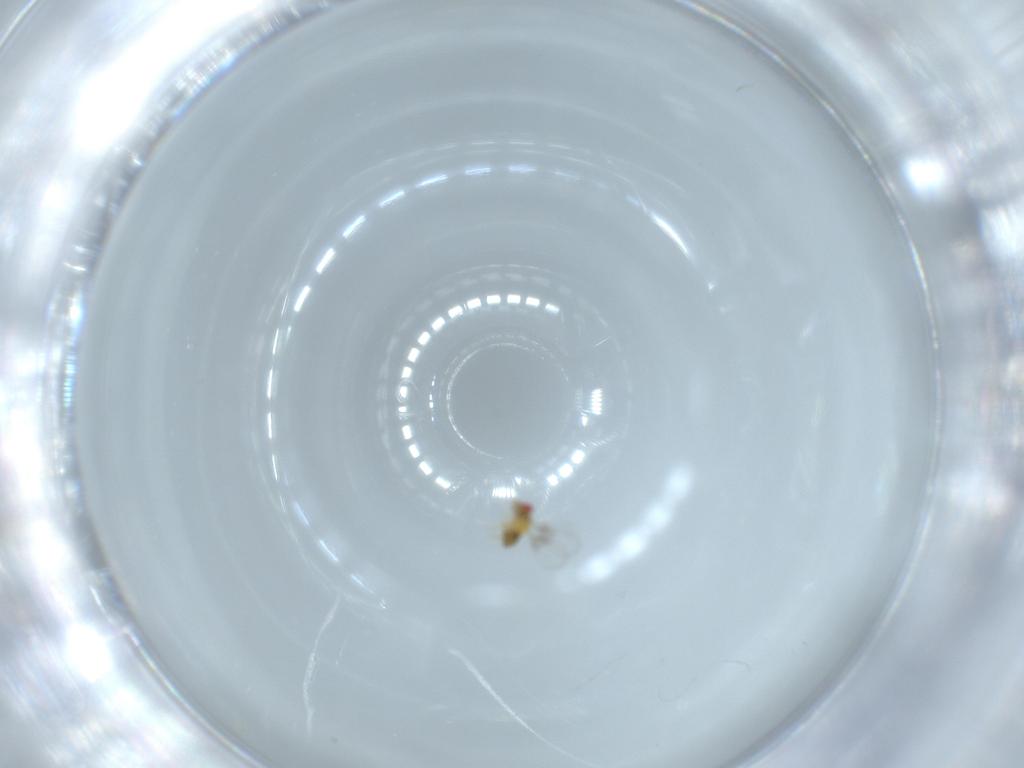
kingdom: Animalia
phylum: Arthropoda
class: Insecta
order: Hymenoptera
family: Trichogrammatidae
